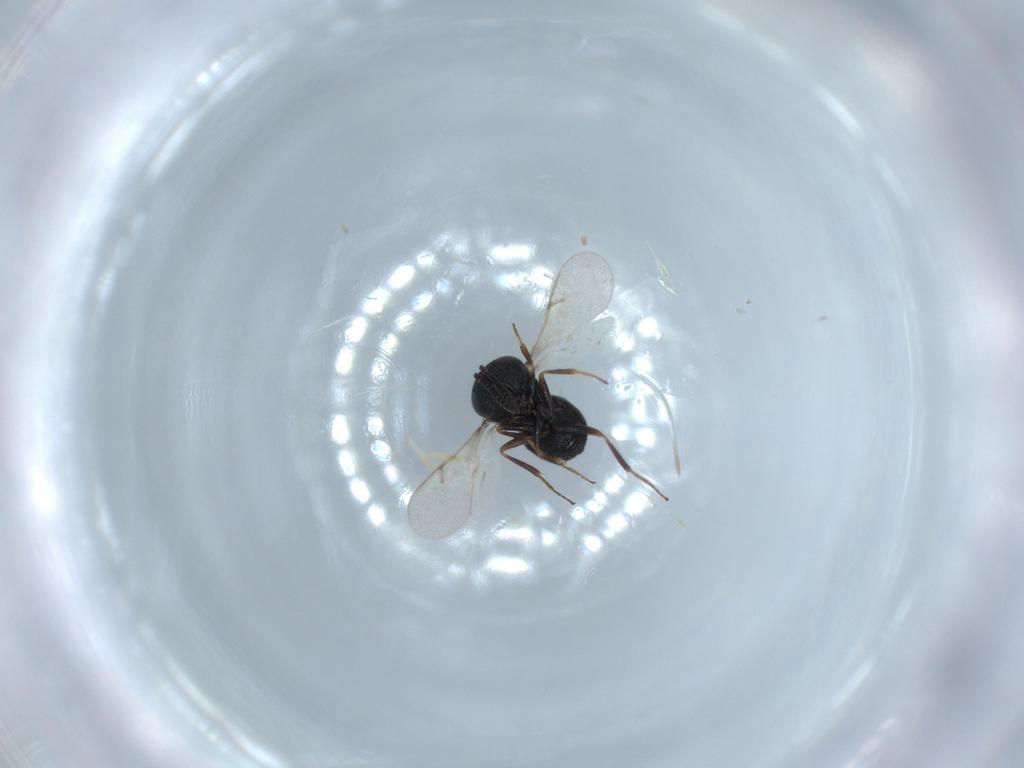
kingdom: Animalia
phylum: Arthropoda
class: Insecta
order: Hymenoptera
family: Scelionidae
